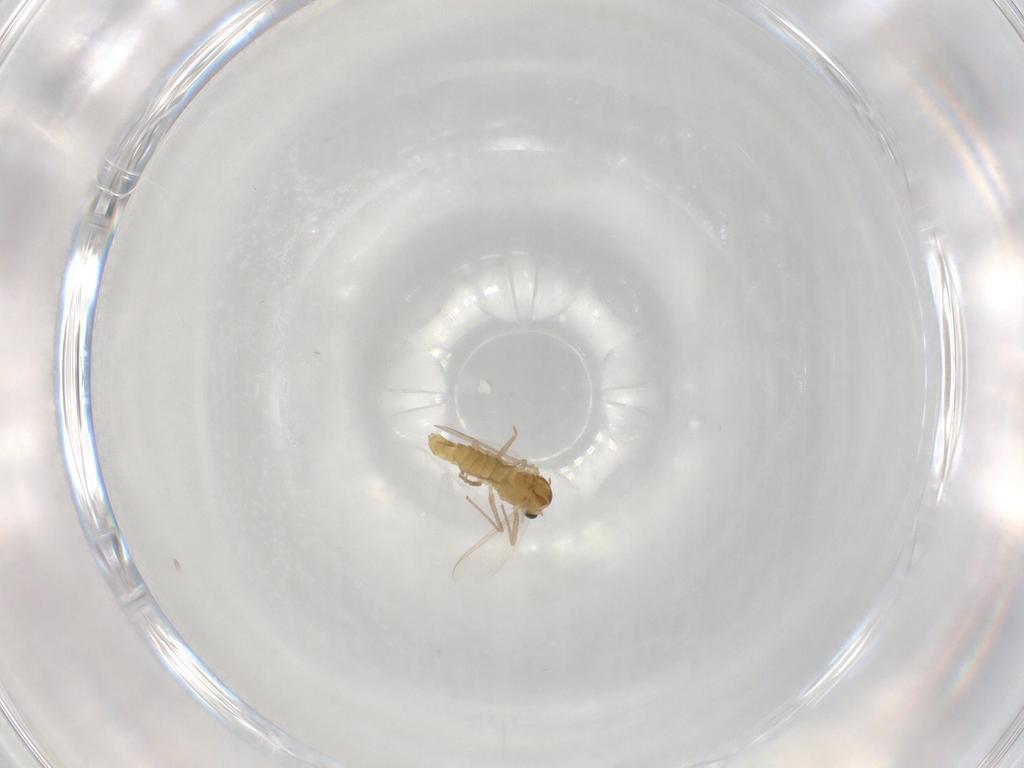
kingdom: Animalia
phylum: Arthropoda
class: Insecta
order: Diptera
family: Chironomidae
